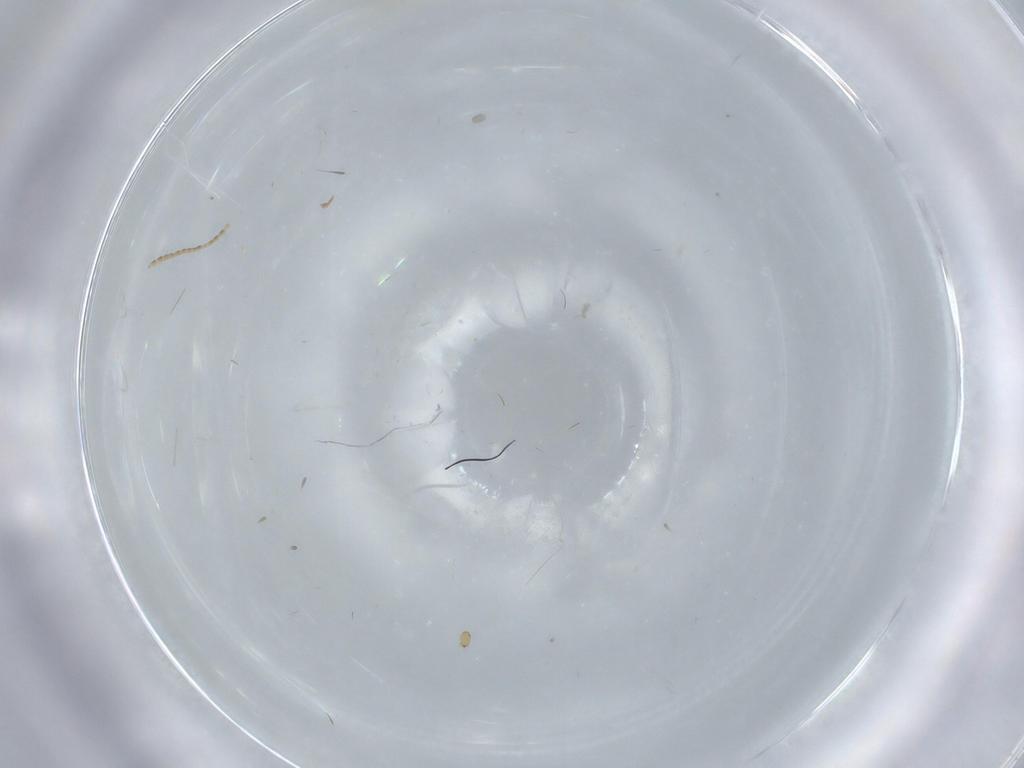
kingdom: Animalia
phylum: Arthropoda
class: Insecta
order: Diptera
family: Cecidomyiidae
